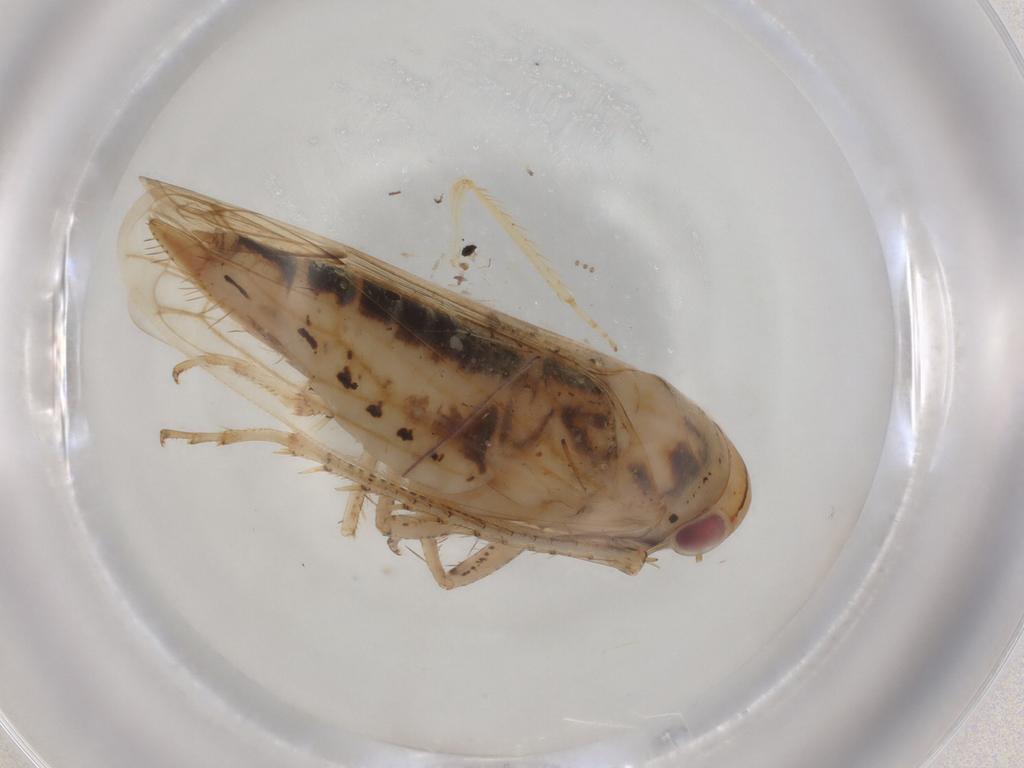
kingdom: Animalia
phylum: Arthropoda
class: Insecta
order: Hemiptera
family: Cicadellidae
